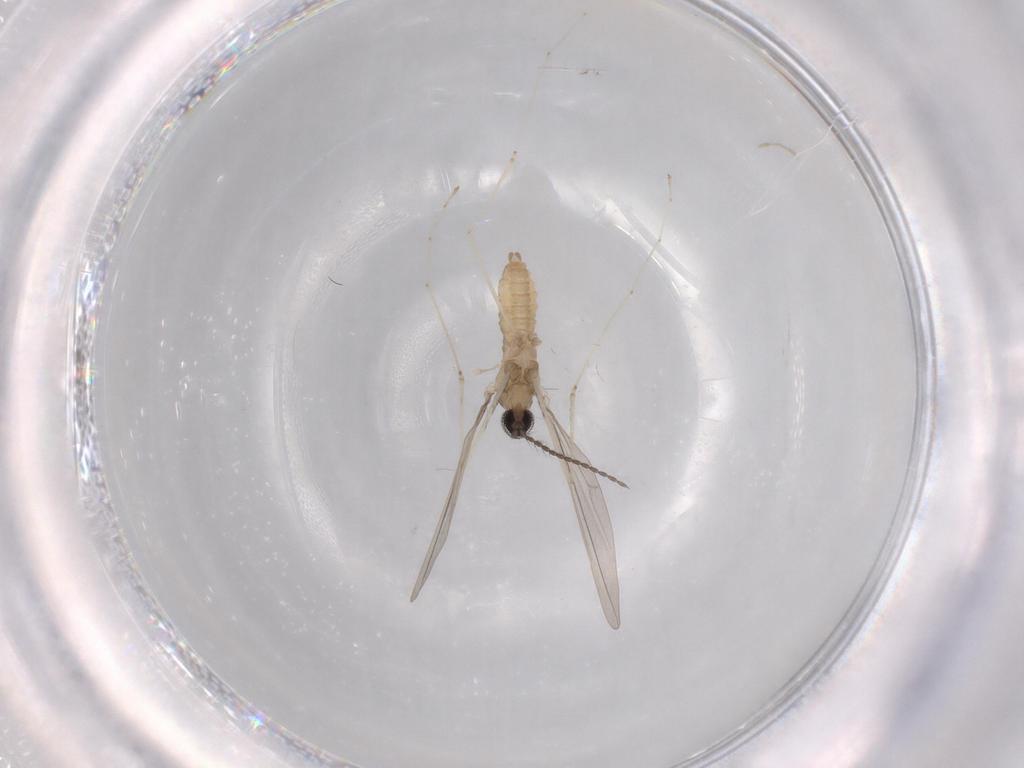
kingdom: Animalia
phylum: Arthropoda
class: Insecta
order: Diptera
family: Cecidomyiidae
